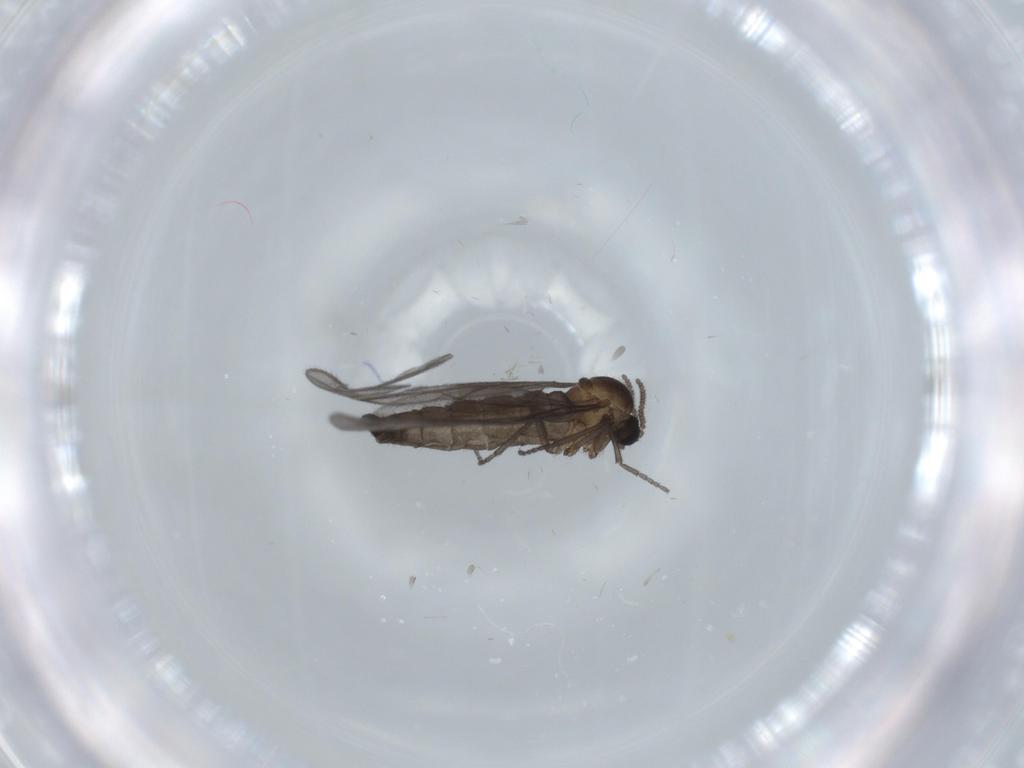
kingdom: Animalia
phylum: Arthropoda
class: Insecta
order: Diptera
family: Sciaridae
